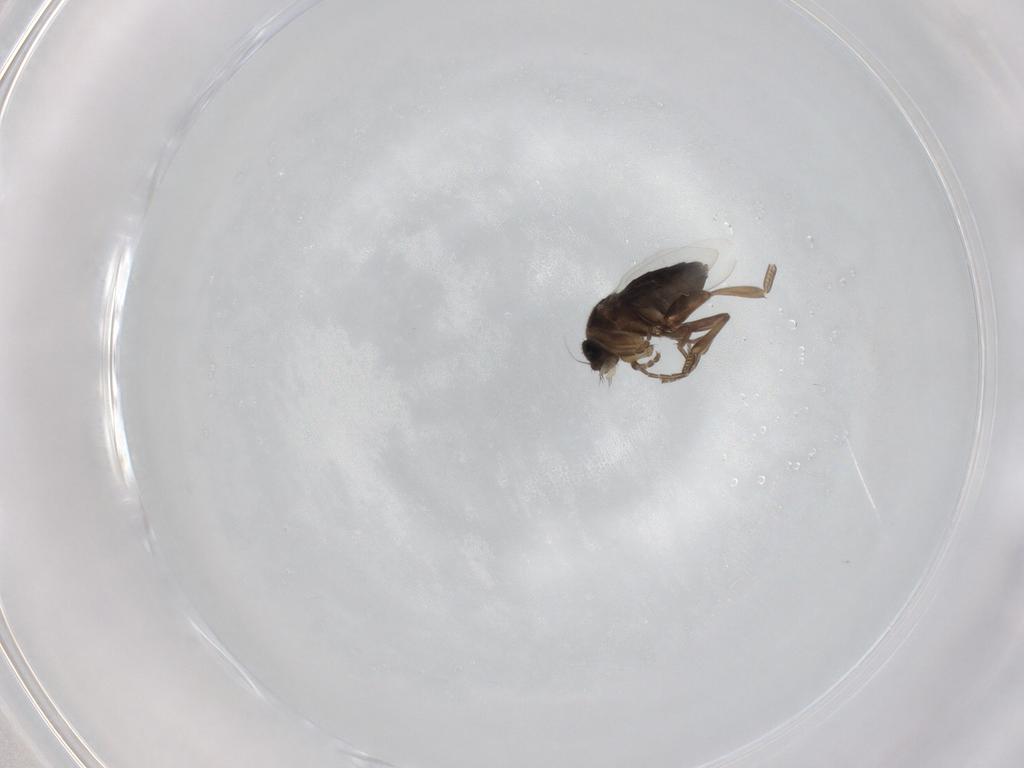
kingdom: Animalia
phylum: Arthropoda
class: Insecta
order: Diptera
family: Phoridae
